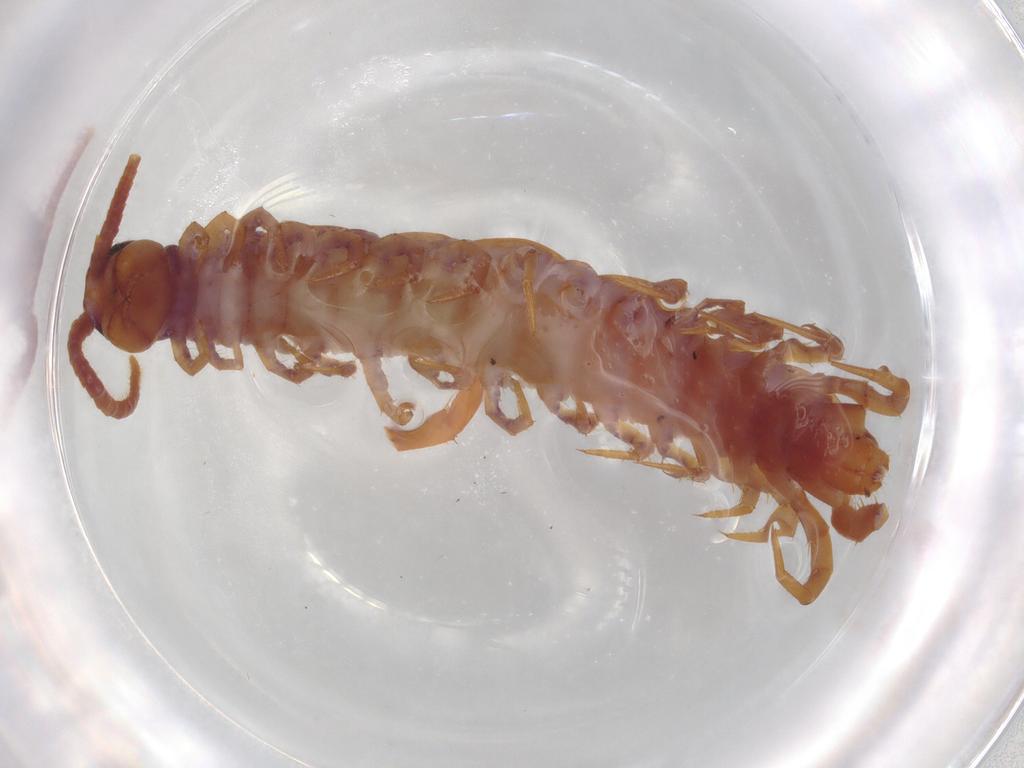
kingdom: Animalia
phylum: Arthropoda
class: Chilopoda
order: Lithobiomorpha
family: Lithobiidae
